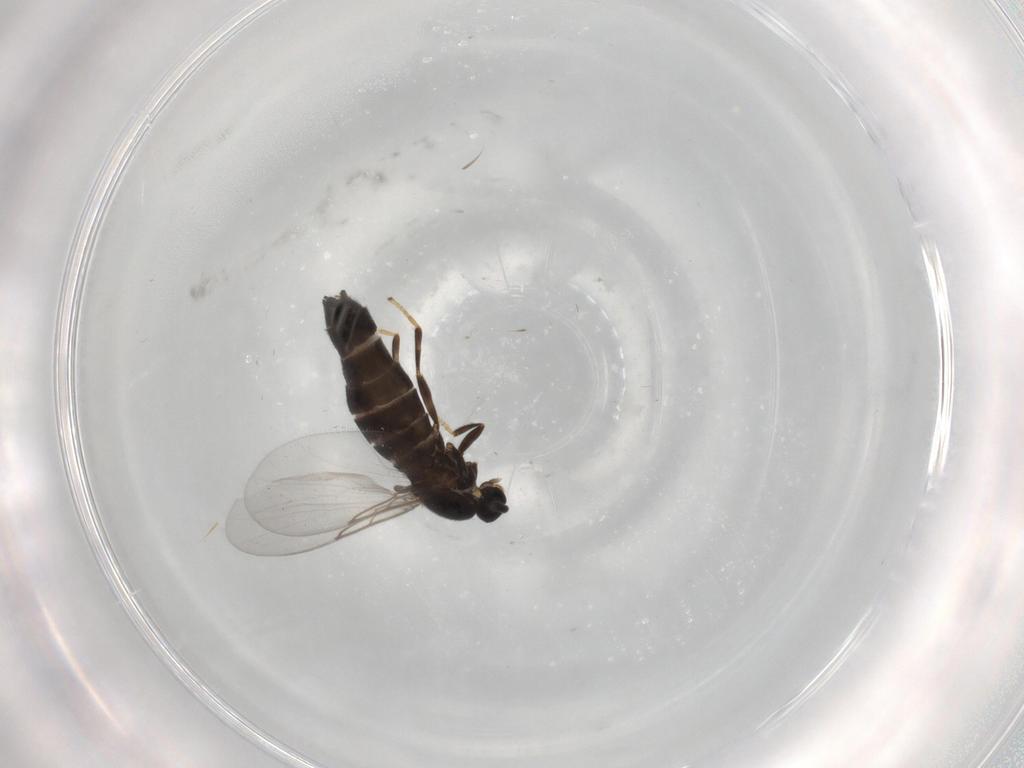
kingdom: Animalia
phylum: Arthropoda
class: Insecta
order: Diptera
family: Scatopsidae
